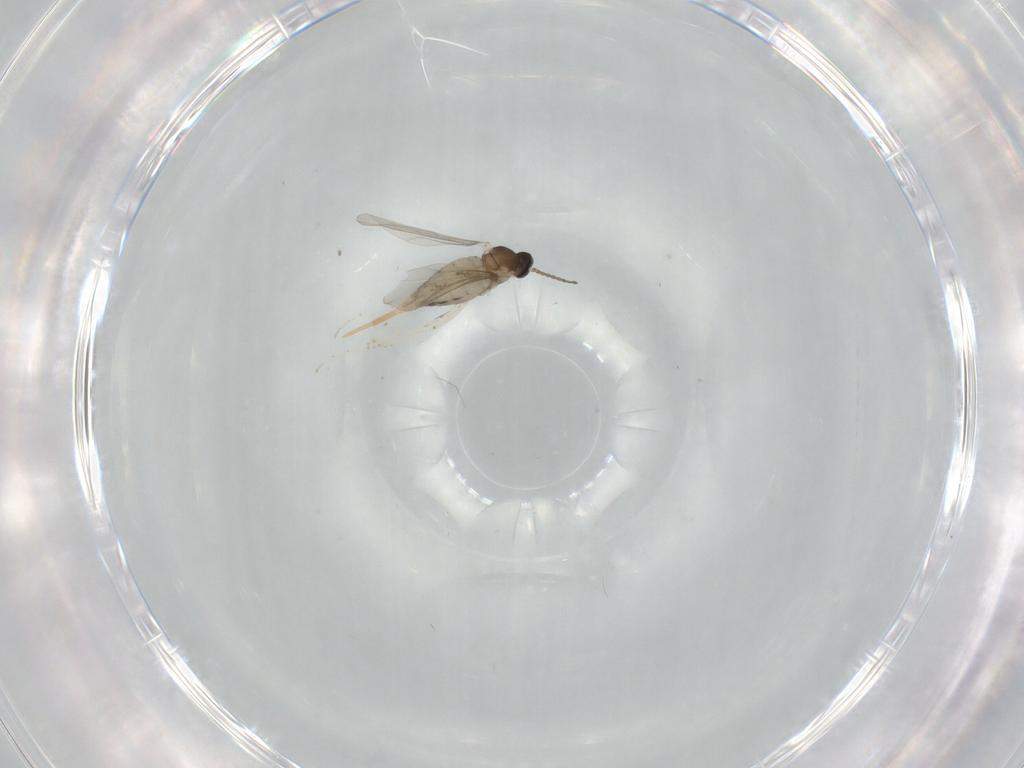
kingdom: Animalia
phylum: Arthropoda
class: Insecta
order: Diptera
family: Cecidomyiidae
